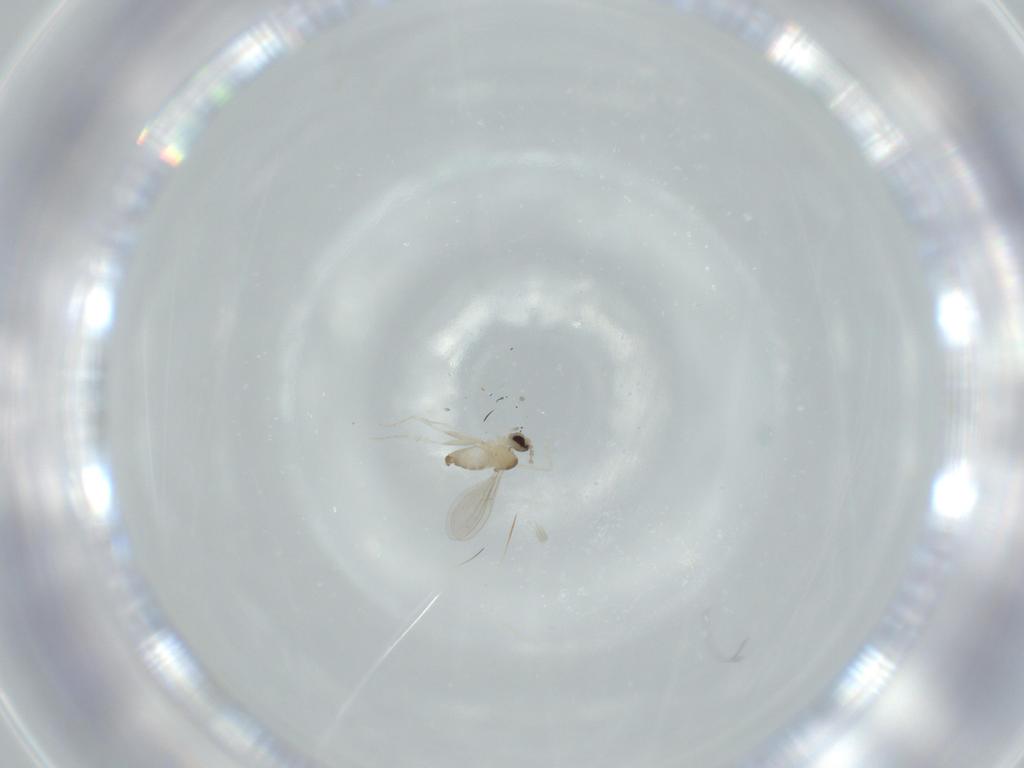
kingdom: Animalia
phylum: Arthropoda
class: Insecta
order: Diptera
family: Cecidomyiidae
